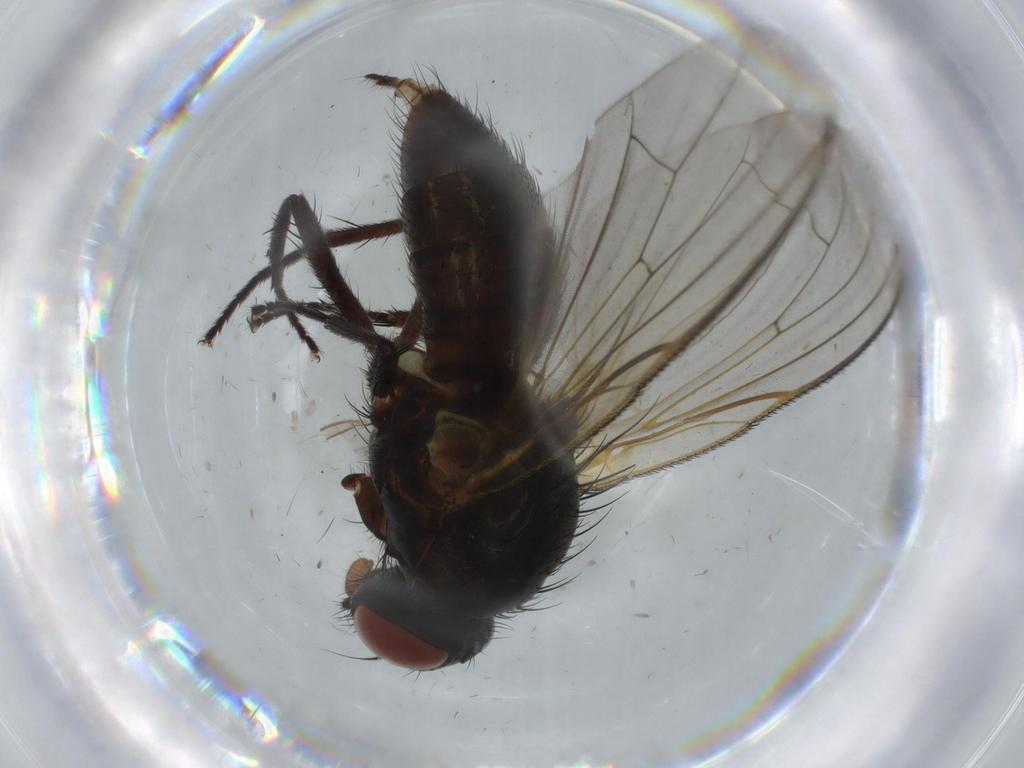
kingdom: Animalia
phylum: Arthropoda
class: Insecta
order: Diptera
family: Muscidae
